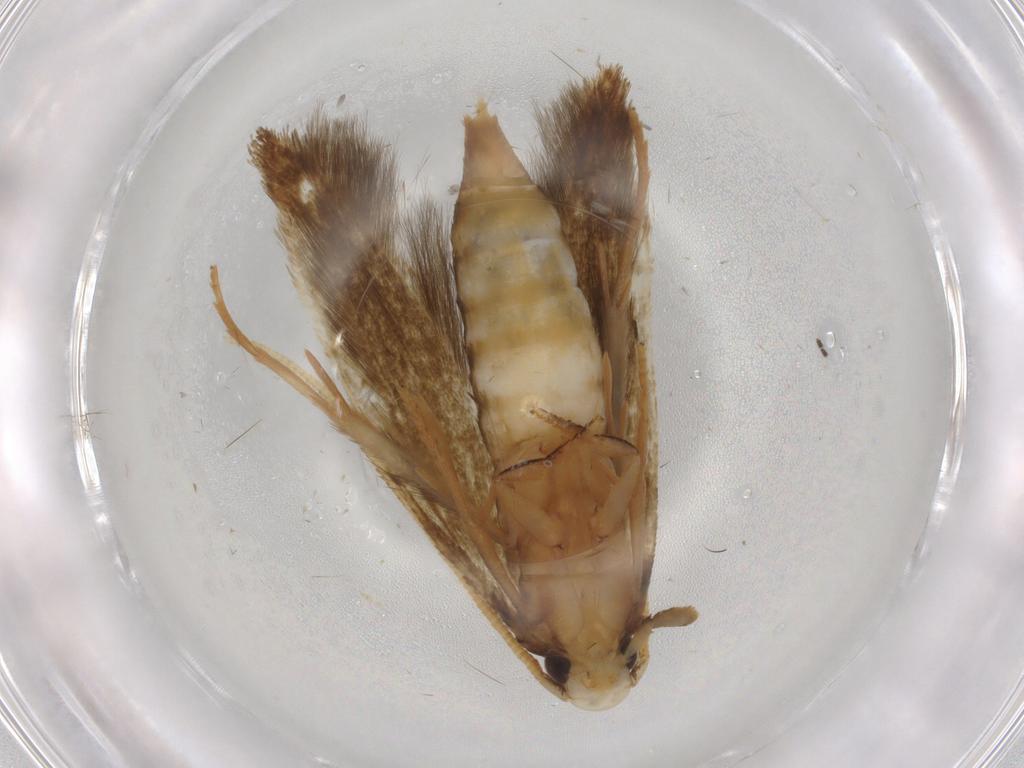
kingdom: Animalia
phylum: Arthropoda
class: Insecta
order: Lepidoptera
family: Tineidae
